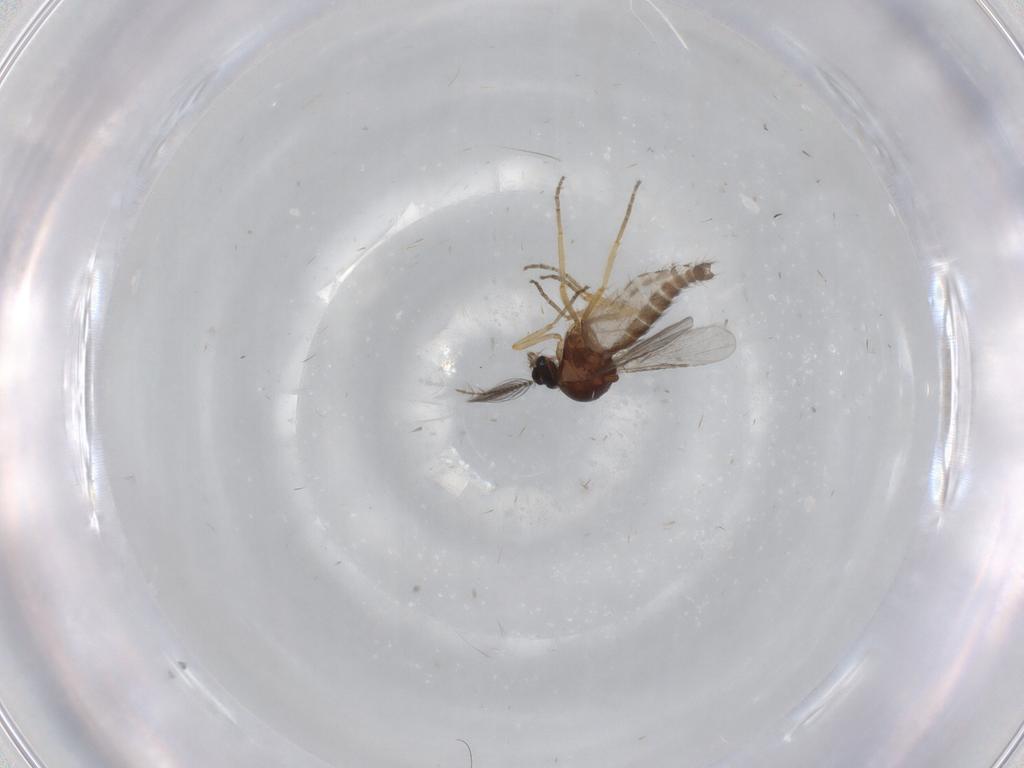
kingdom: Animalia
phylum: Arthropoda
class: Insecta
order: Diptera
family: Ceratopogonidae
